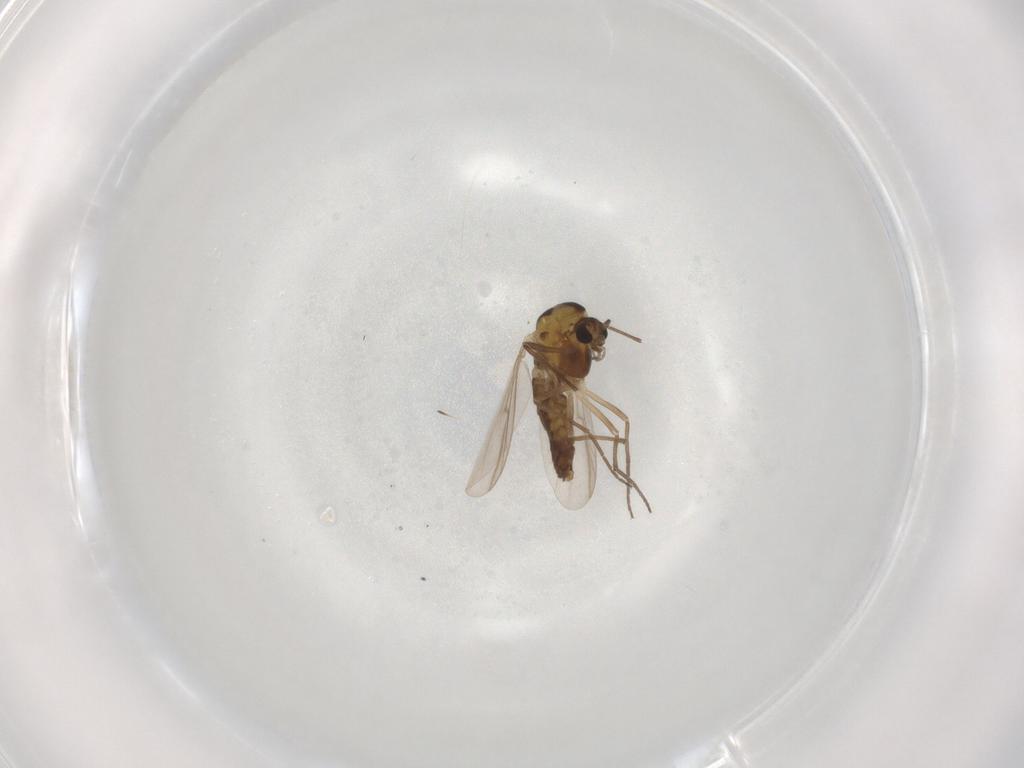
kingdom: Animalia
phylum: Arthropoda
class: Insecta
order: Diptera
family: Chironomidae
